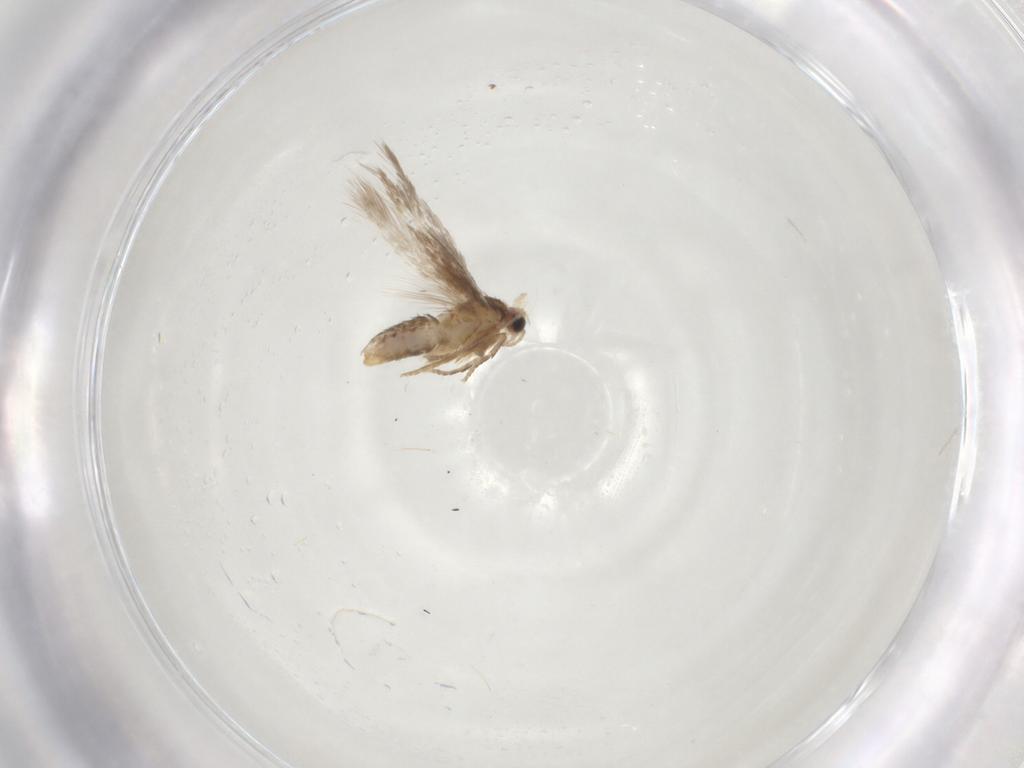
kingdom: Animalia
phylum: Arthropoda
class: Insecta
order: Lepidoptera
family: Nepticulidae
